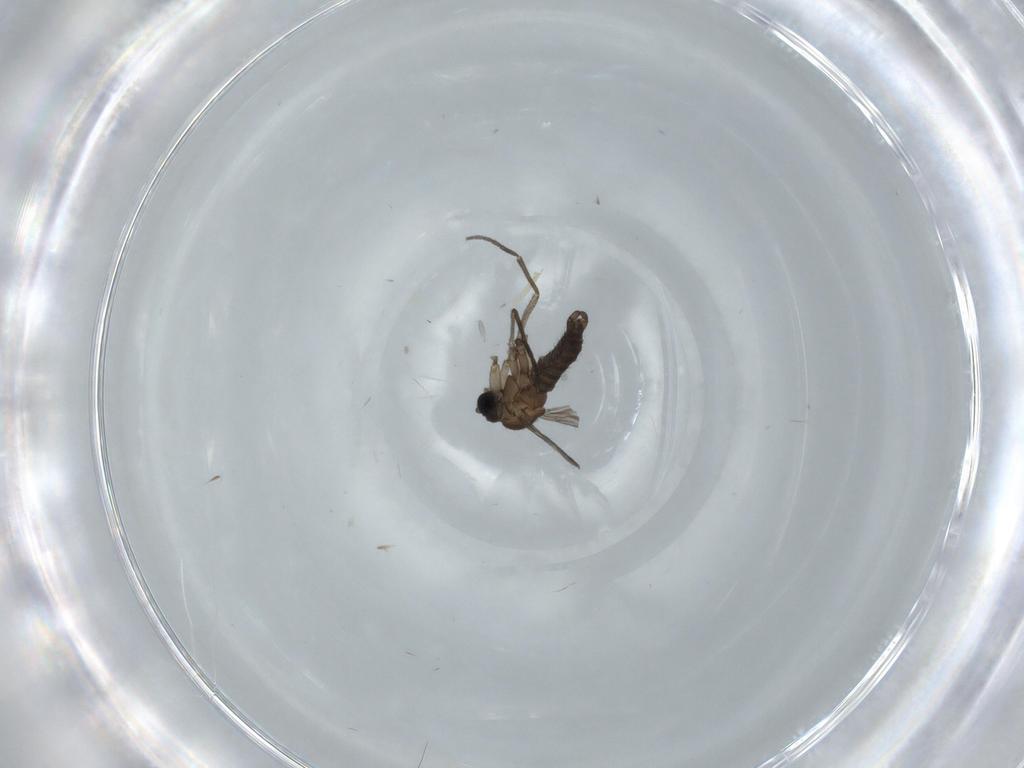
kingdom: Animalia
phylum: Arthropoda
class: Insecta
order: Diptera
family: Sciaridae
